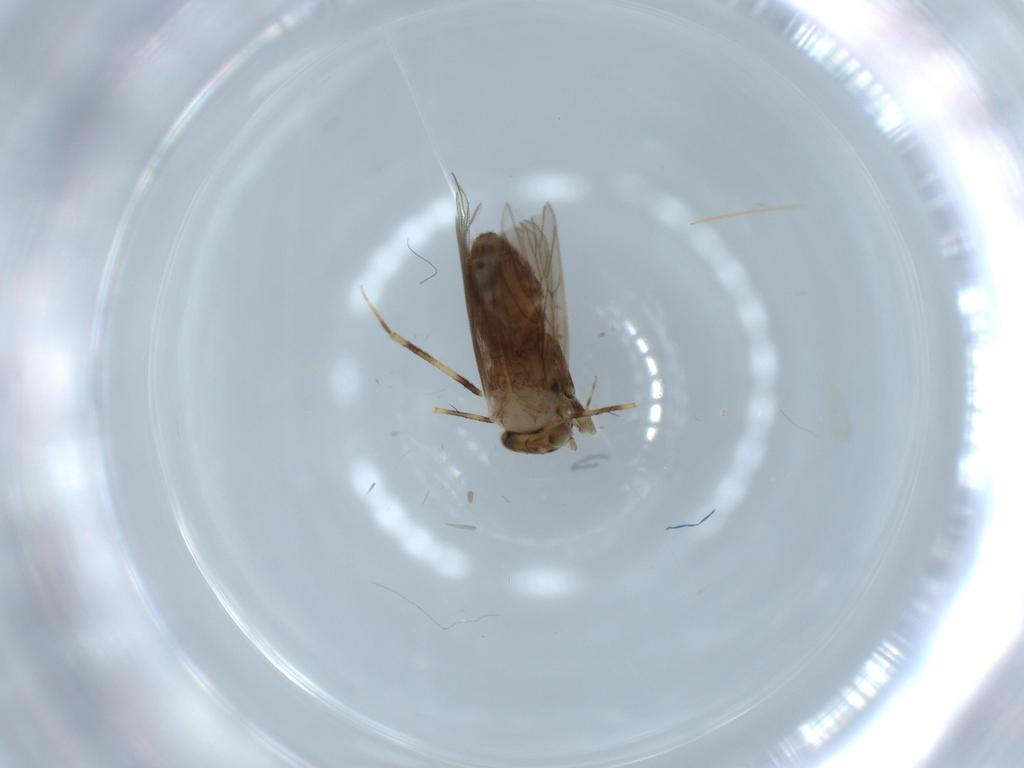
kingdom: Animalia
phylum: Arthropoda
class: Insecta
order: Psocodea
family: Lepidopsocidae
